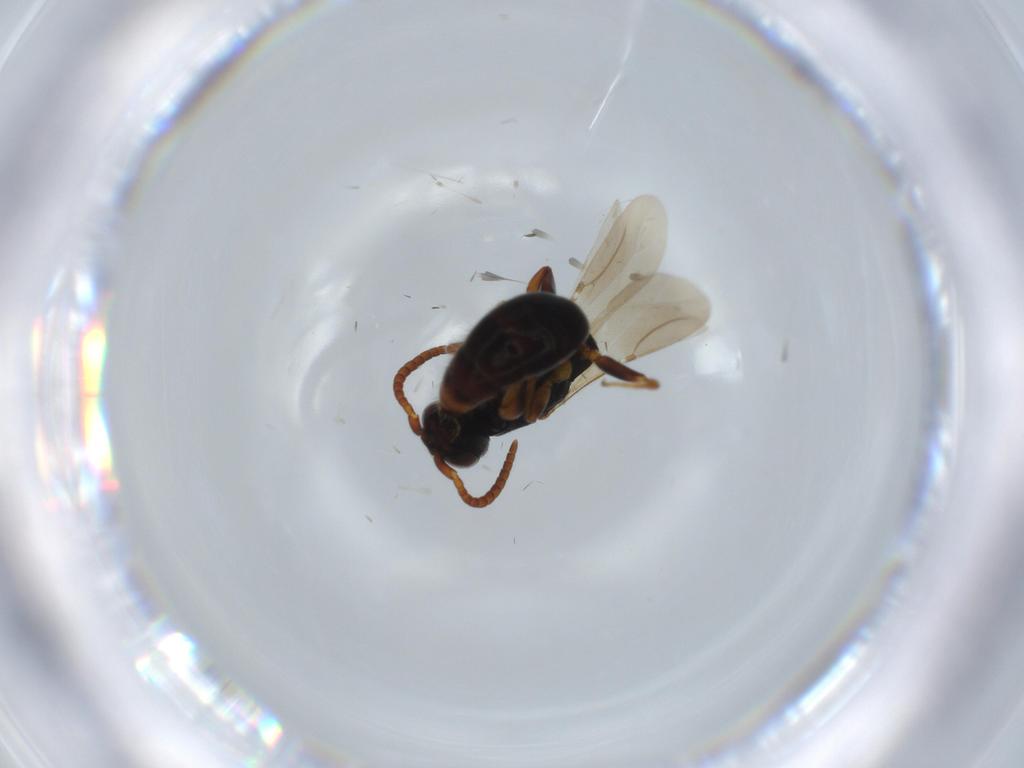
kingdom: Animalia
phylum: Arthropoda
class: Insecta
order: Hymenoptera
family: Bethylidae
